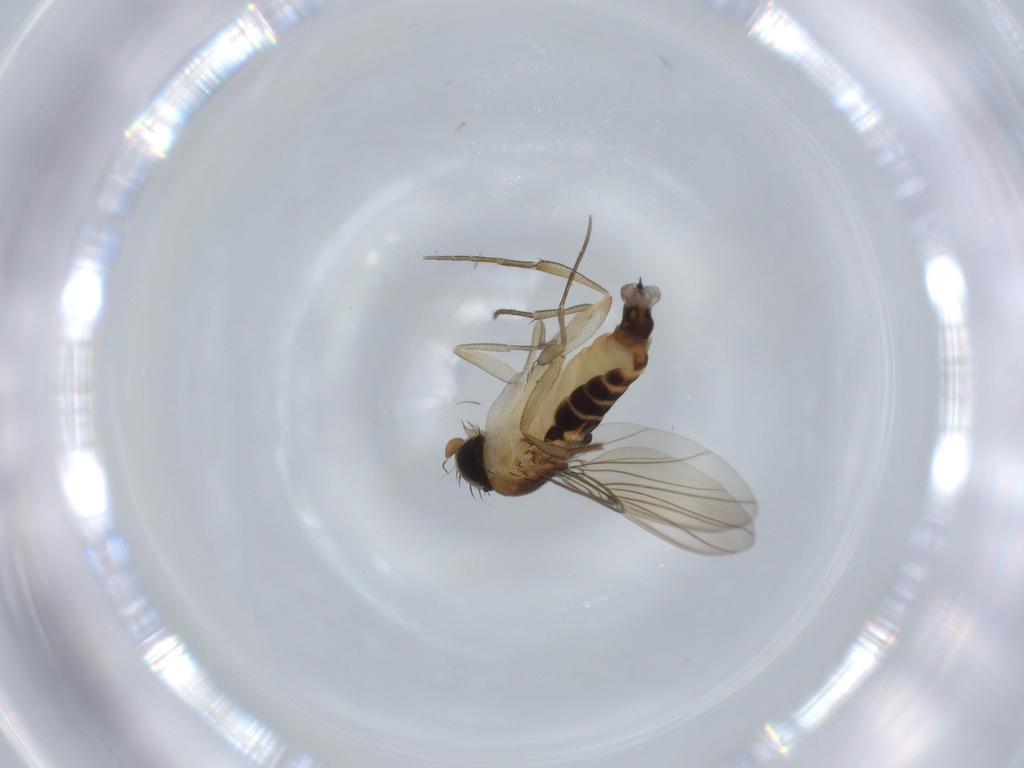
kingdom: Animalia
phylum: Arthropoda
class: Insecta
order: Diptera
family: Phoridae
